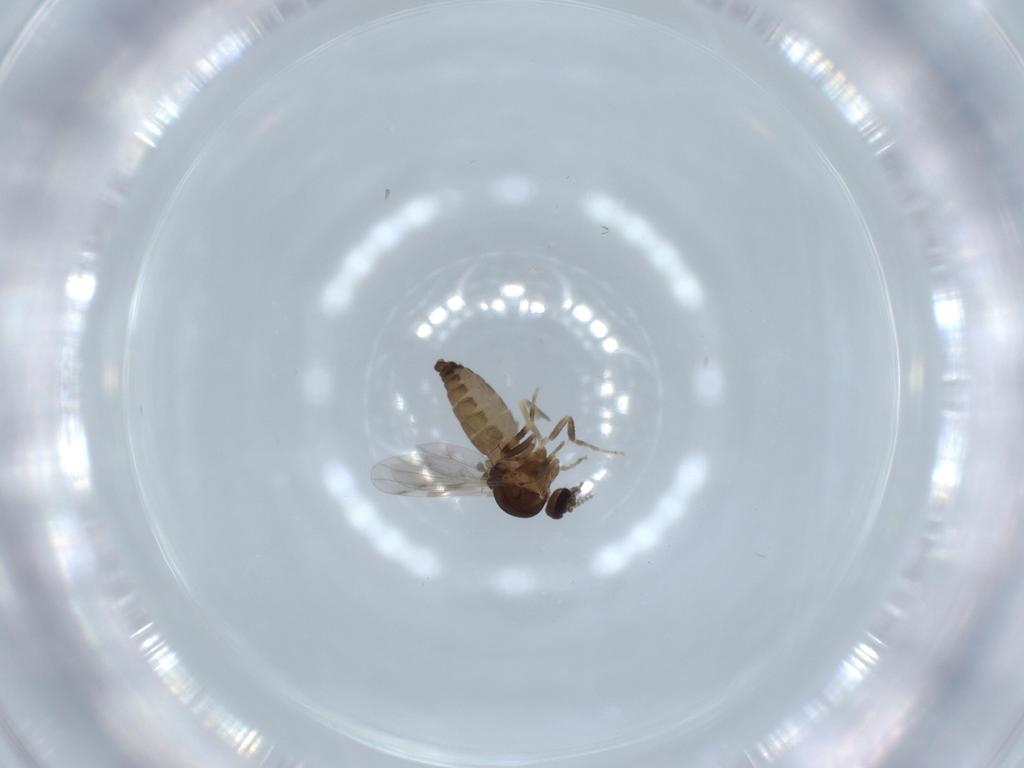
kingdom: Animalia
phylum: Arthropoda
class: Insecta
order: Diptera
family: Ceratopogonidae
